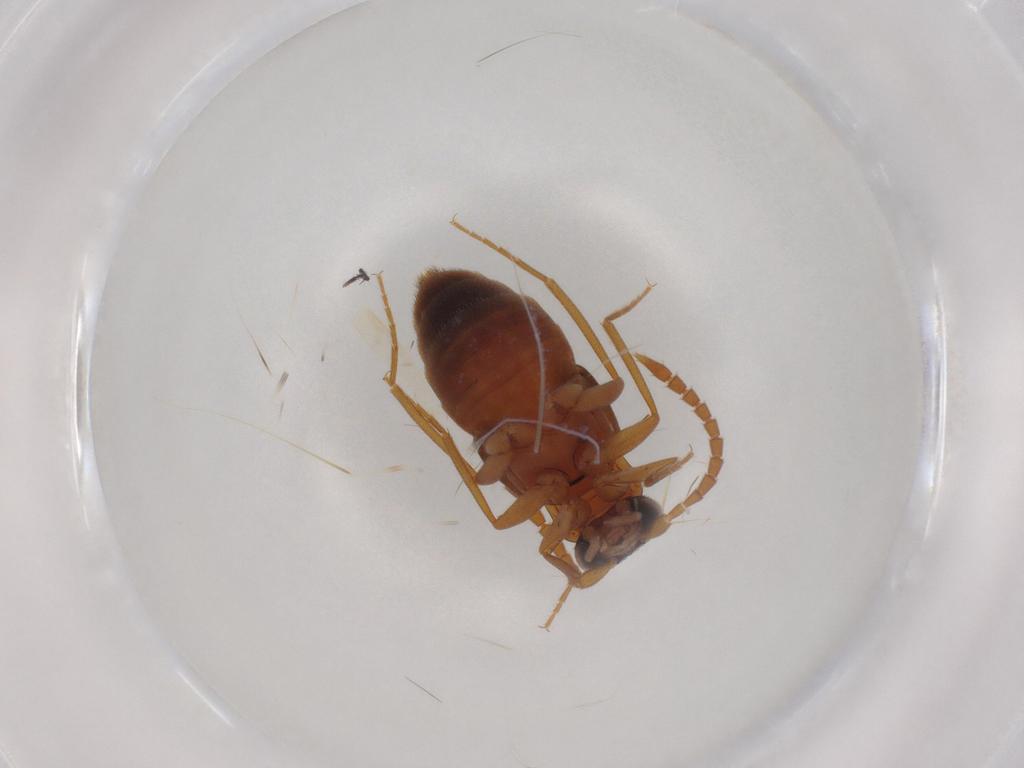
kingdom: Animalia
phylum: Arthropoda
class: Insecta
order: Coleoptera
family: Staphylinidae
